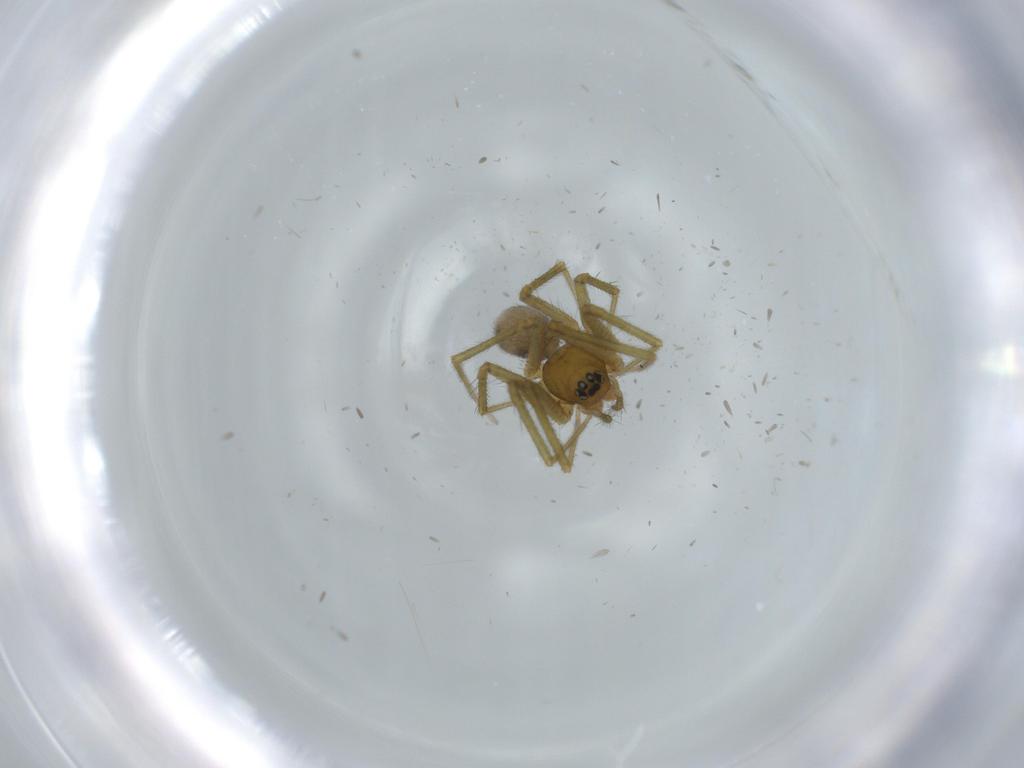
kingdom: Animalia
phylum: Arthropoda
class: Arachnida
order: Araneae
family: Linyphiidae
